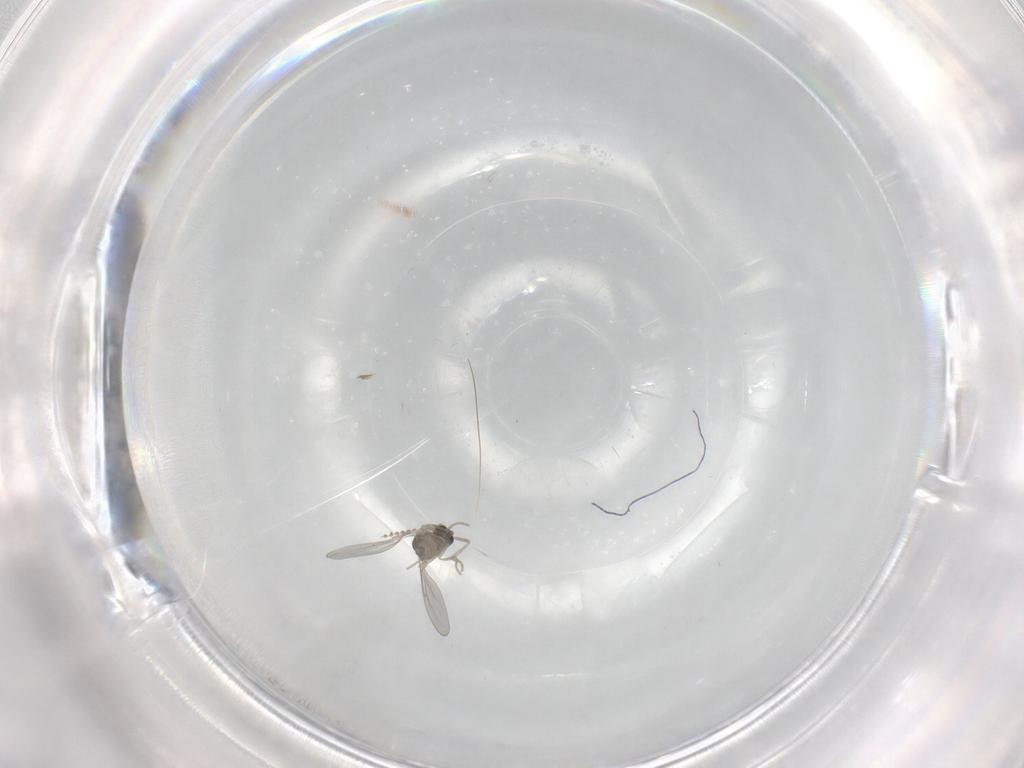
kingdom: Animalia
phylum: Arthropoda
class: Insecta
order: Diptera
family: Cecidomyiidae
